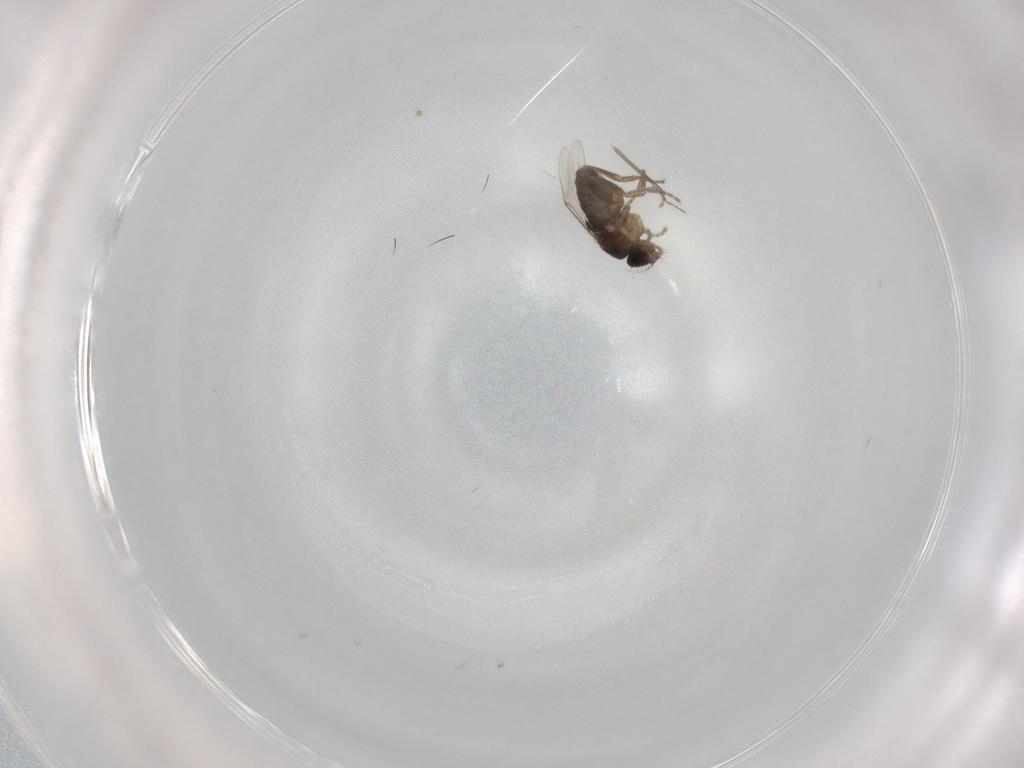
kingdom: Animalia
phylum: Arthropoda
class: Insecta
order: Diptera
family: Phoridae
